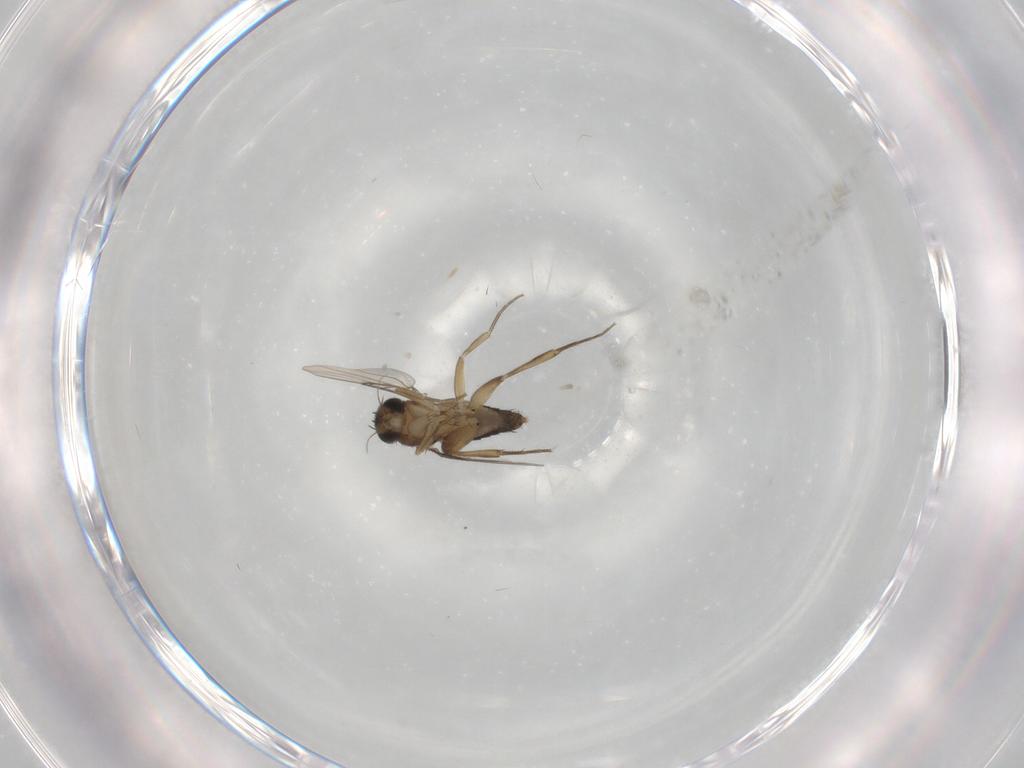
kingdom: Animalia
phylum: Arthropoda
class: Insecta
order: Diptera
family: Phoridae
